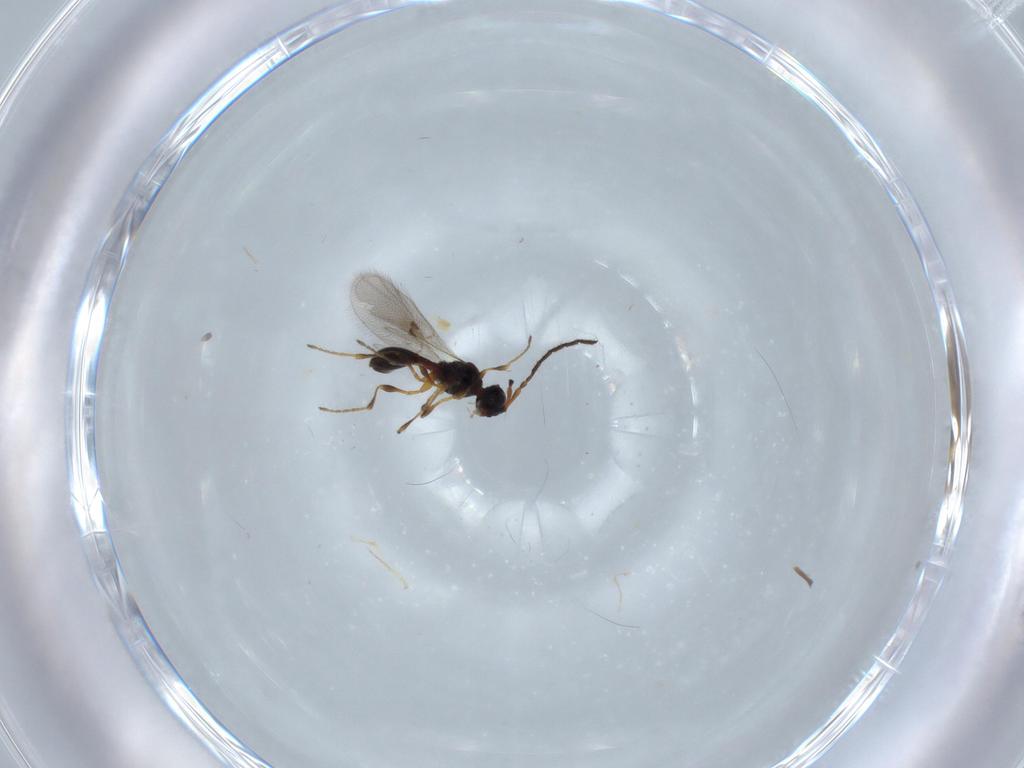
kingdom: Animalia
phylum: Arthropoda
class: Insecta
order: Hymenoptera
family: Diapriidae
